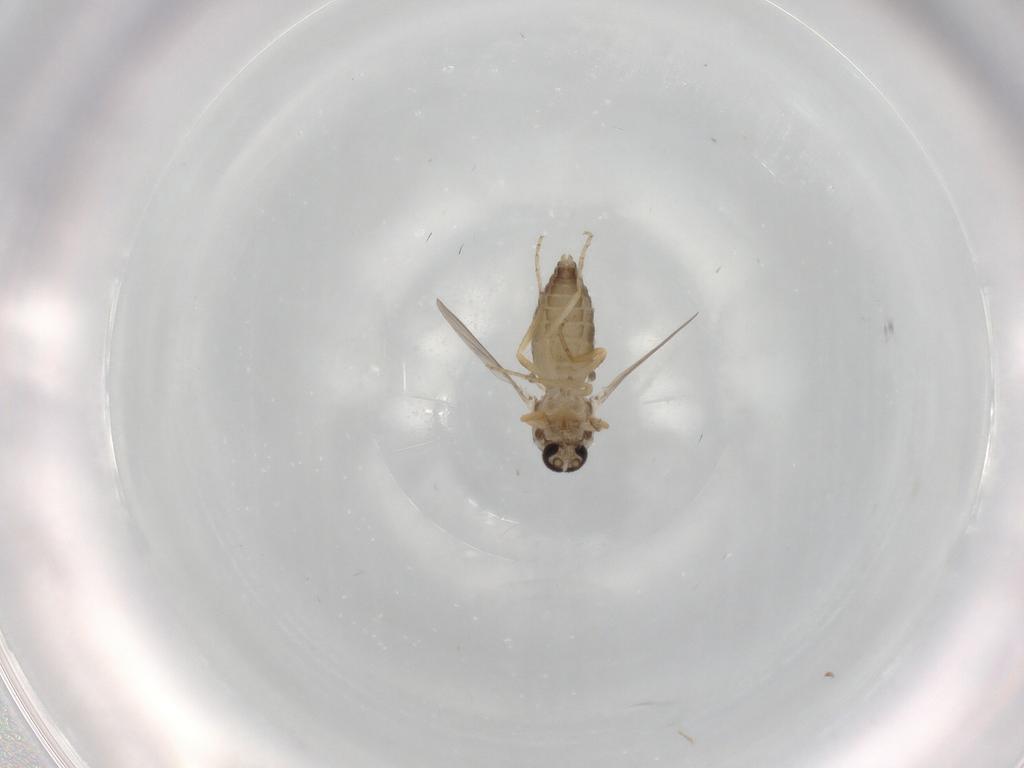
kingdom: Animalia
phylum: Arthropoda
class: Insecta
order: Diptera
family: Ceratopogonidae
